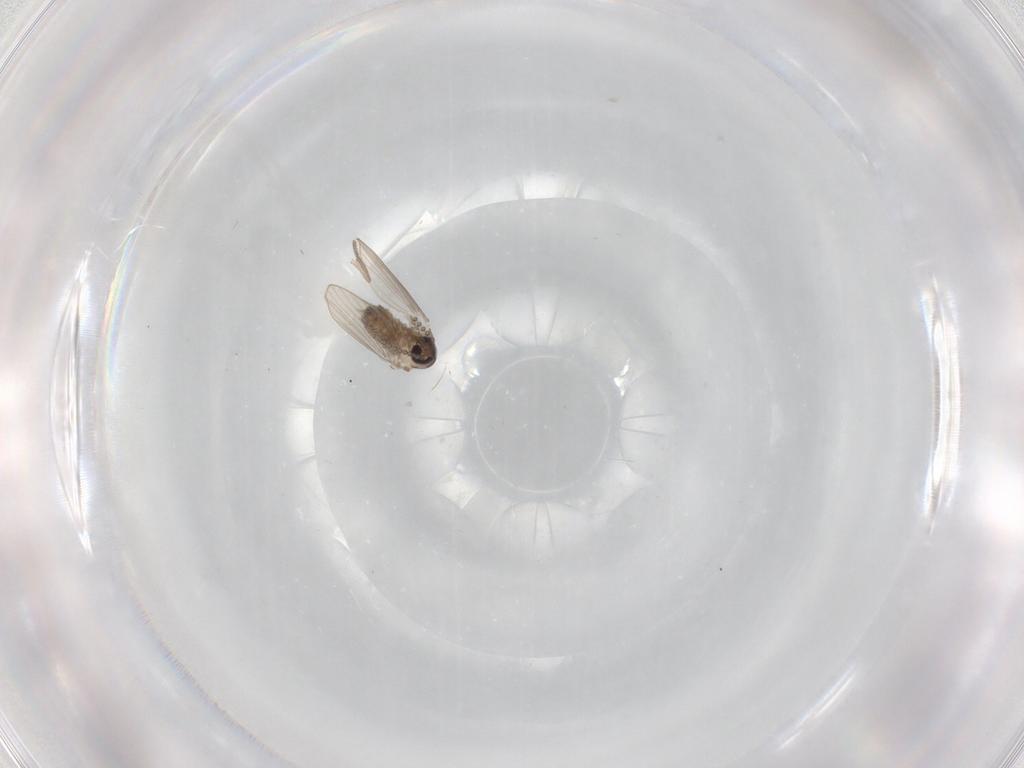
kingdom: Animalia
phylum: Arthropoda
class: Insecta
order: Diptera
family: Psychodidae
